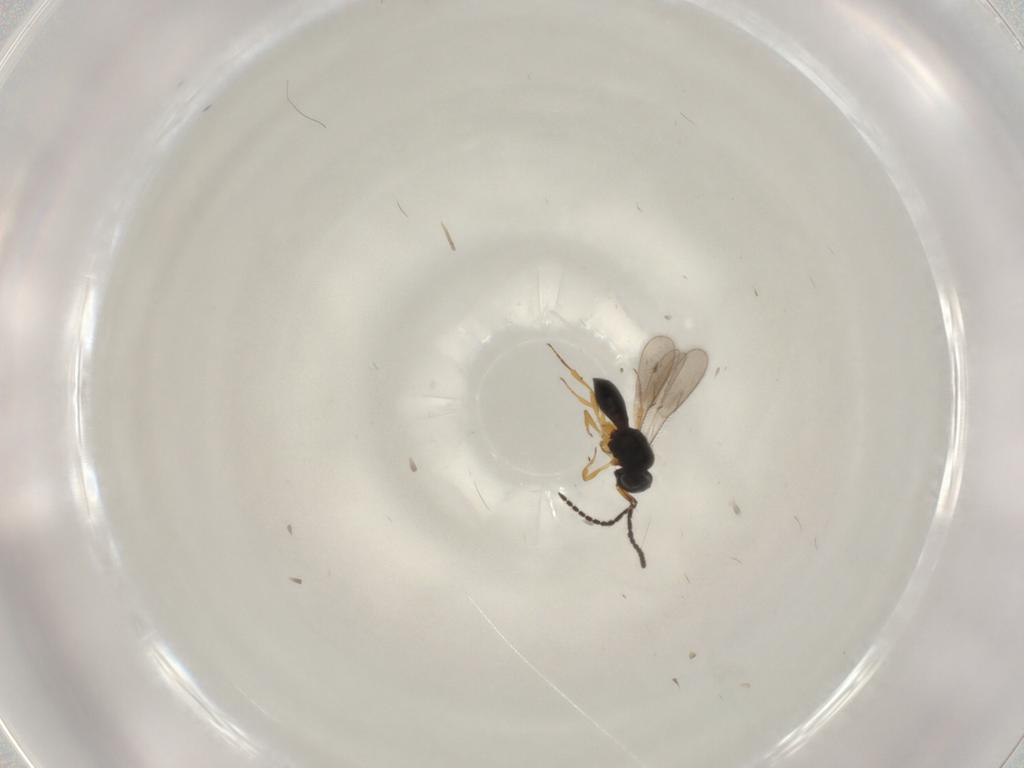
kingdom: Animalia
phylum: Arthropoda
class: Insecta
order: Hymenoptera
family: Scelionidae
